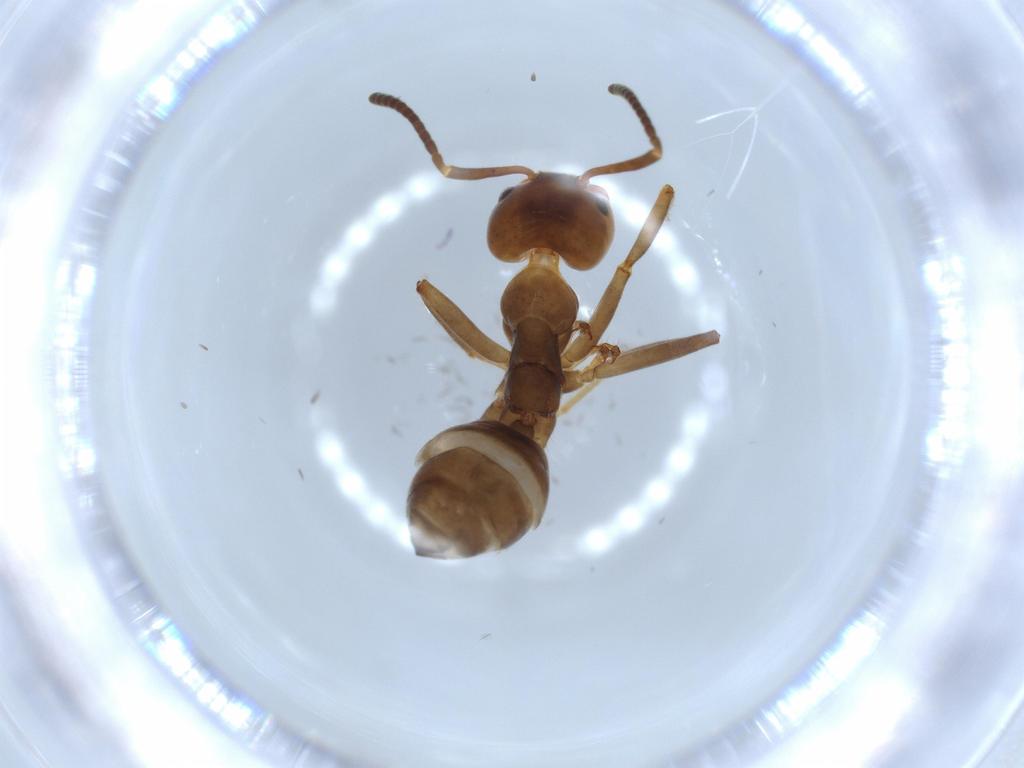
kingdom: Animalia
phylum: Arthropoda
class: Insecta
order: Hymenoptera
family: Formicidae
